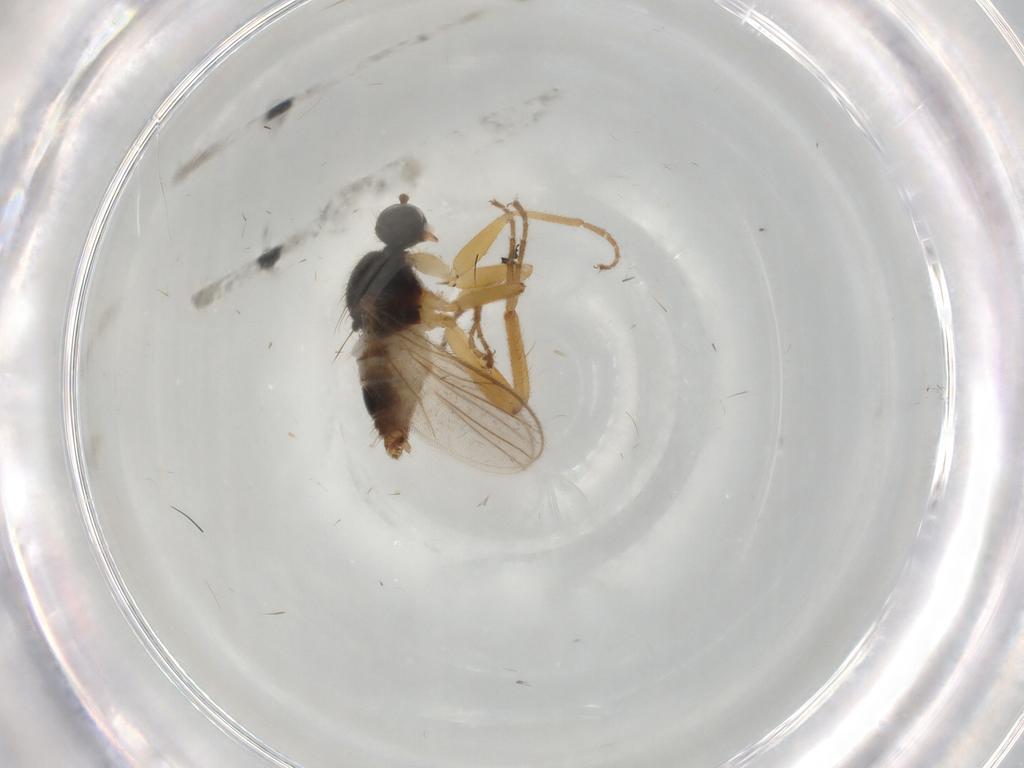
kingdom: Animalia
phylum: Arthropoda
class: Insecta
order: Diptera
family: Hybotidae
